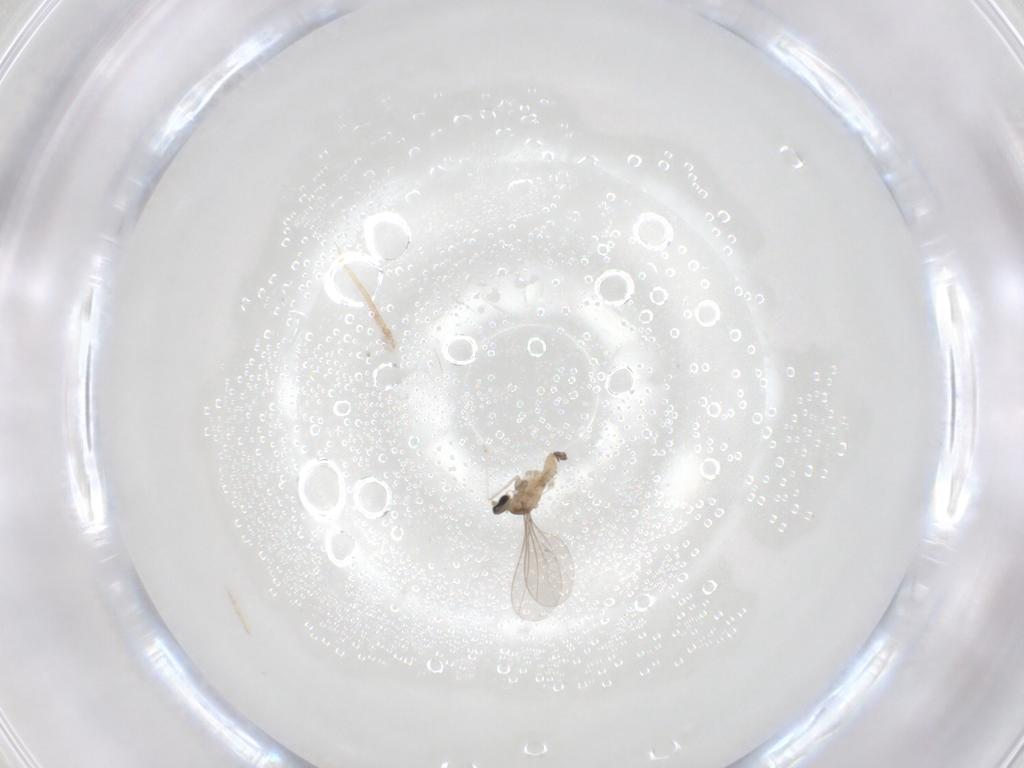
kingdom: Animalia
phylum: Arthropoda
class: Insecta
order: Diptera
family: Cecidomyiidae
